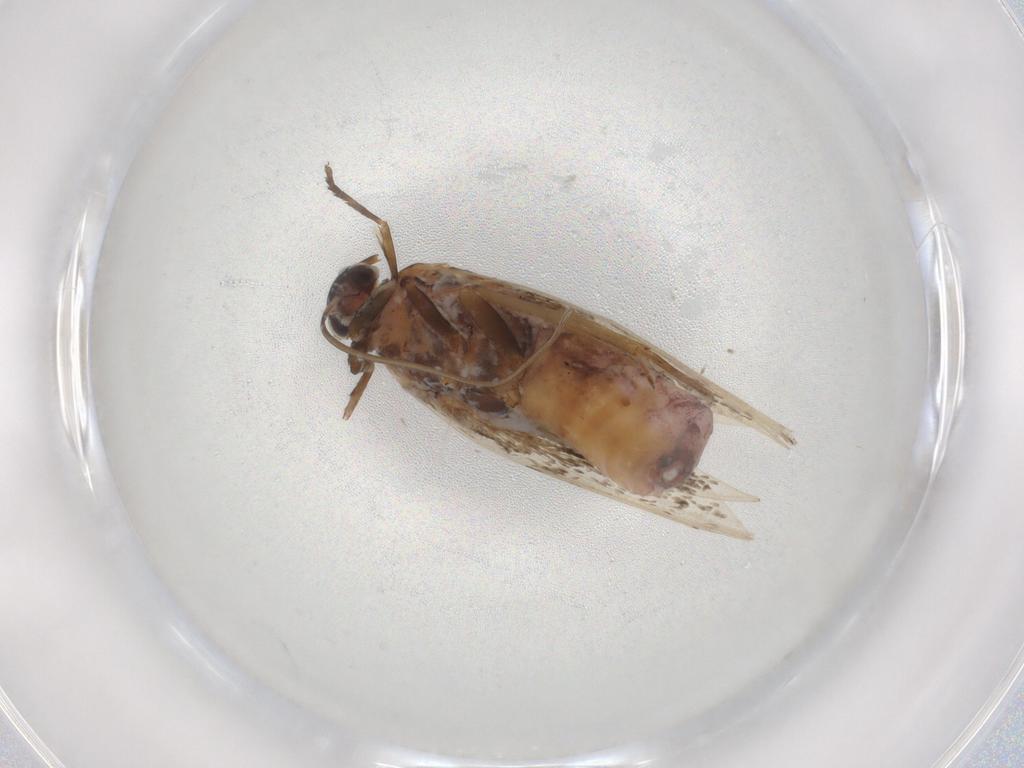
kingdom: Animalia
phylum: Arthropoda
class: Insecta
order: Lepidoptera
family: Scythrididae
